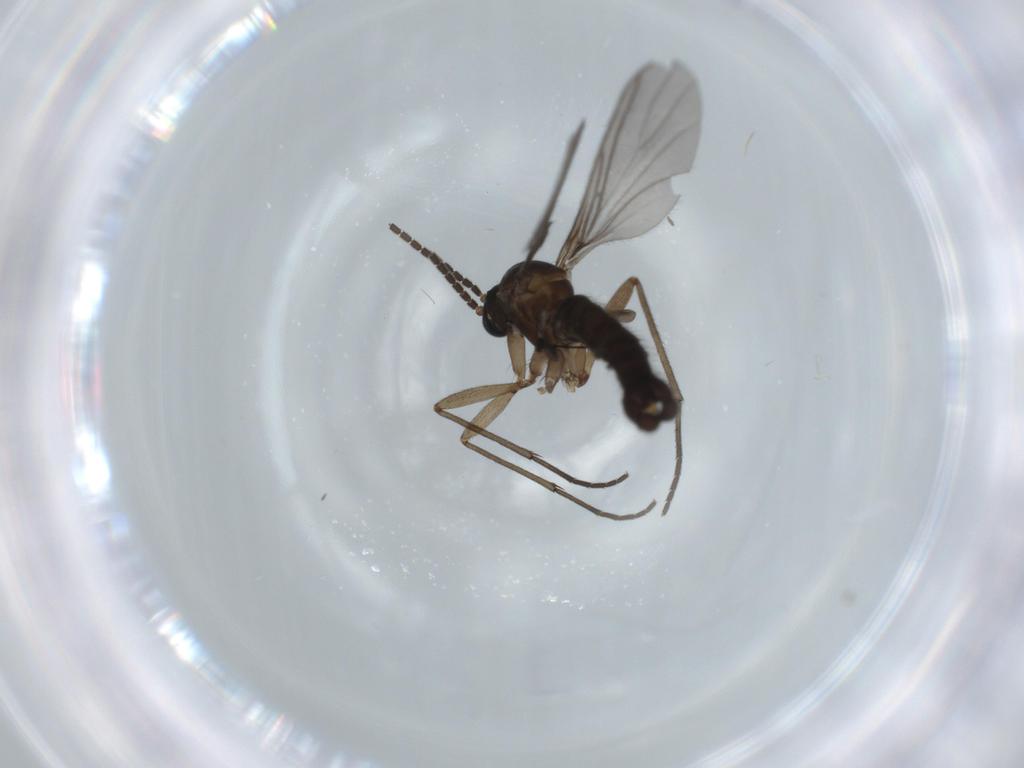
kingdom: Animalia
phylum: Arthropoda
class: Insecta
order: Diptera
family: Sciaridae
